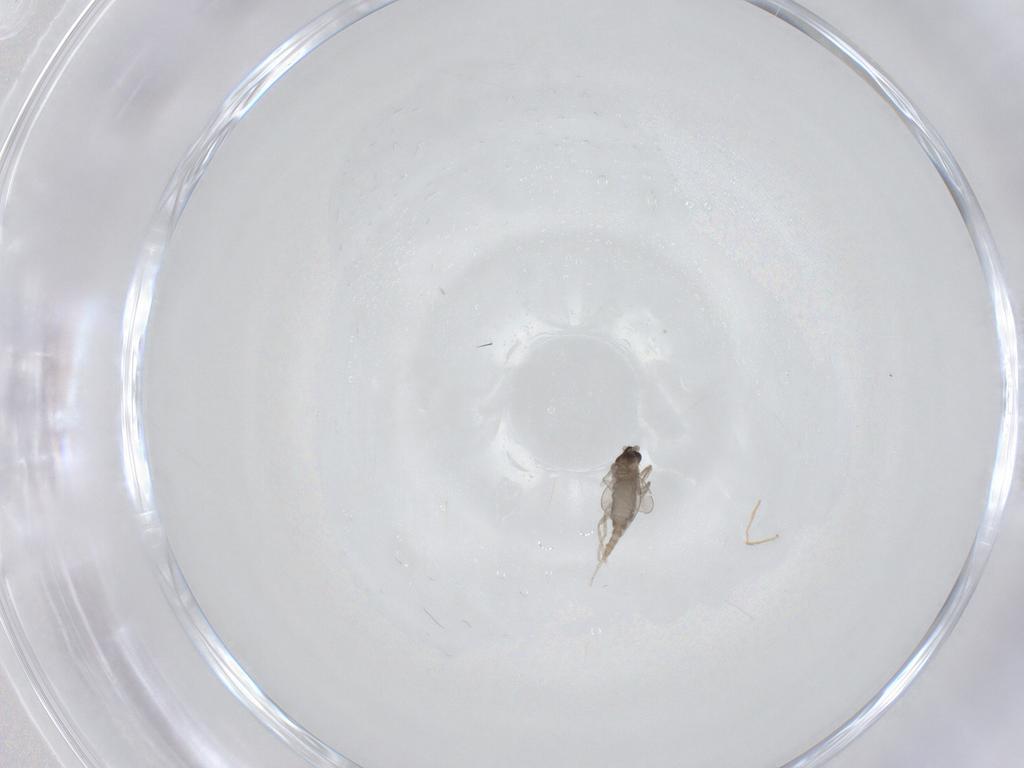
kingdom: Animalia
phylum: Arthropoda
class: Insecta
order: Diptera
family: Cecidomyiidae
